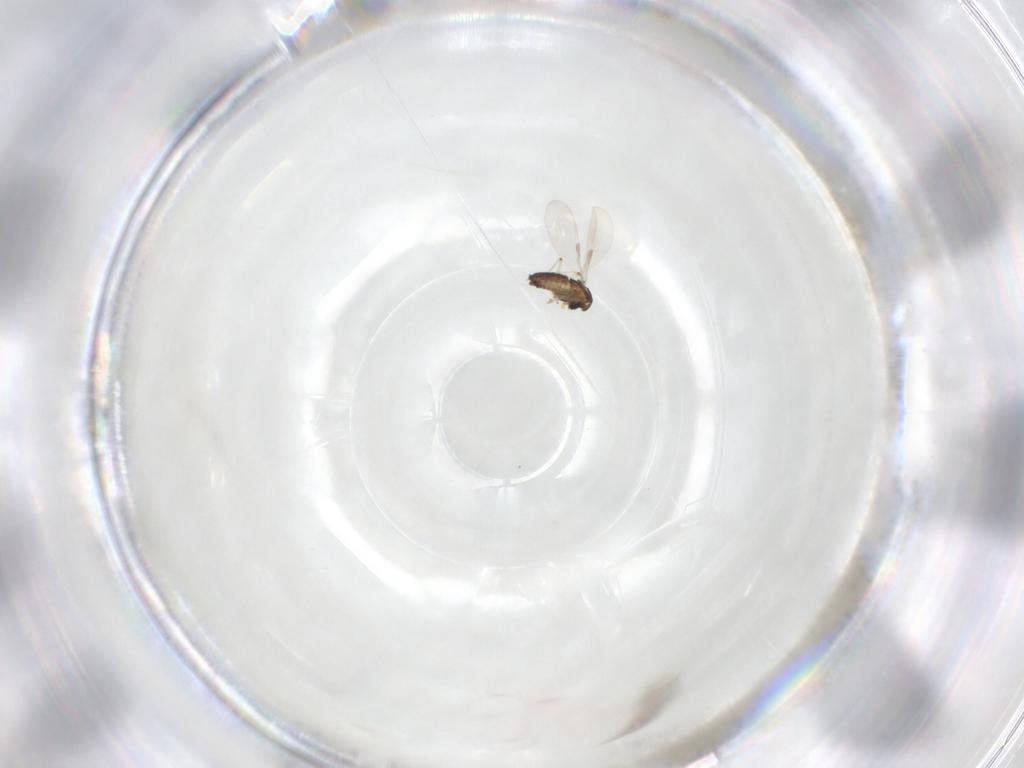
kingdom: Animalia
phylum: Arthropoda
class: Insecta
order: Diptera
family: Chironomidae
